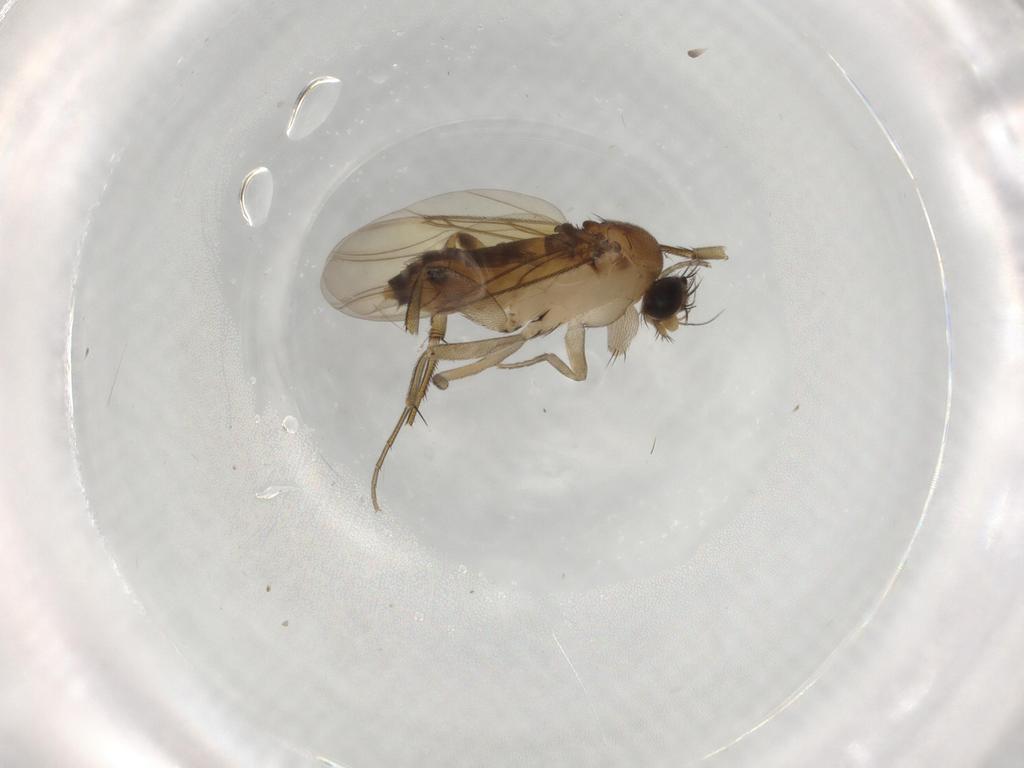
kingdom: Animalia
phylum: Arthropoda
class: Insecta
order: Diptera
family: Phoridae
